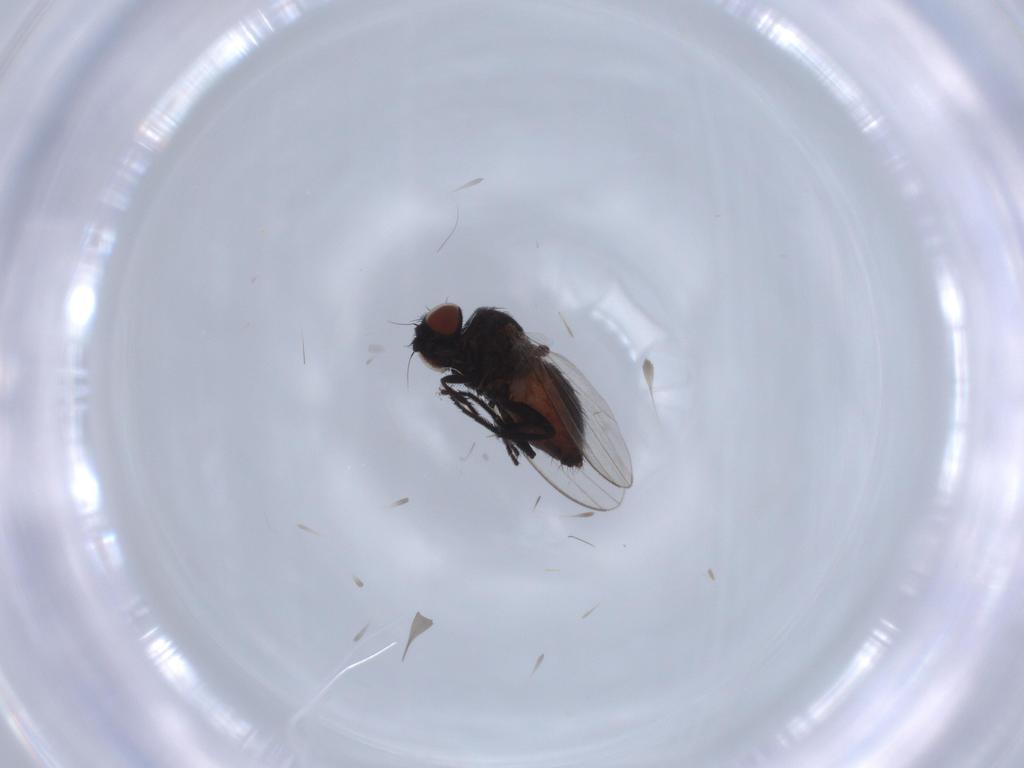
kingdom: Animalia
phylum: Arthropoda
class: Insecta
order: Diptera
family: Milichiidae
